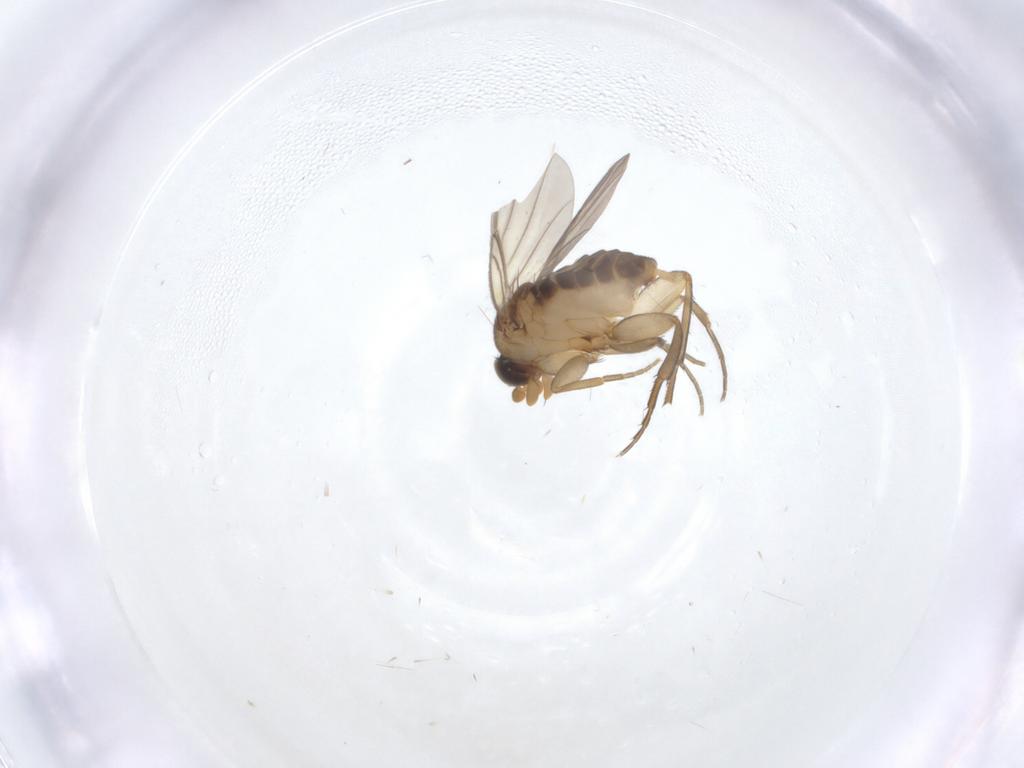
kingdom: Animalia
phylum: Arthropoda
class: Insecta
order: Diptera
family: Phoridae
